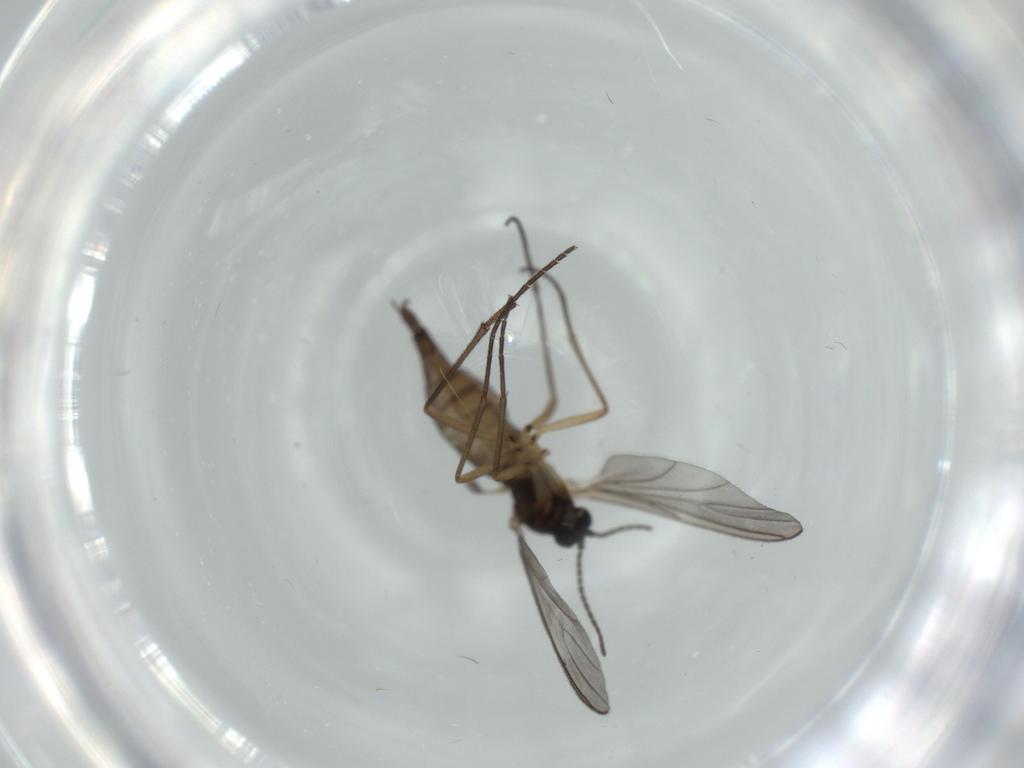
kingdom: Animalia
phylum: Arthropoda
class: Insecta
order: Diptera
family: Sciaridae
